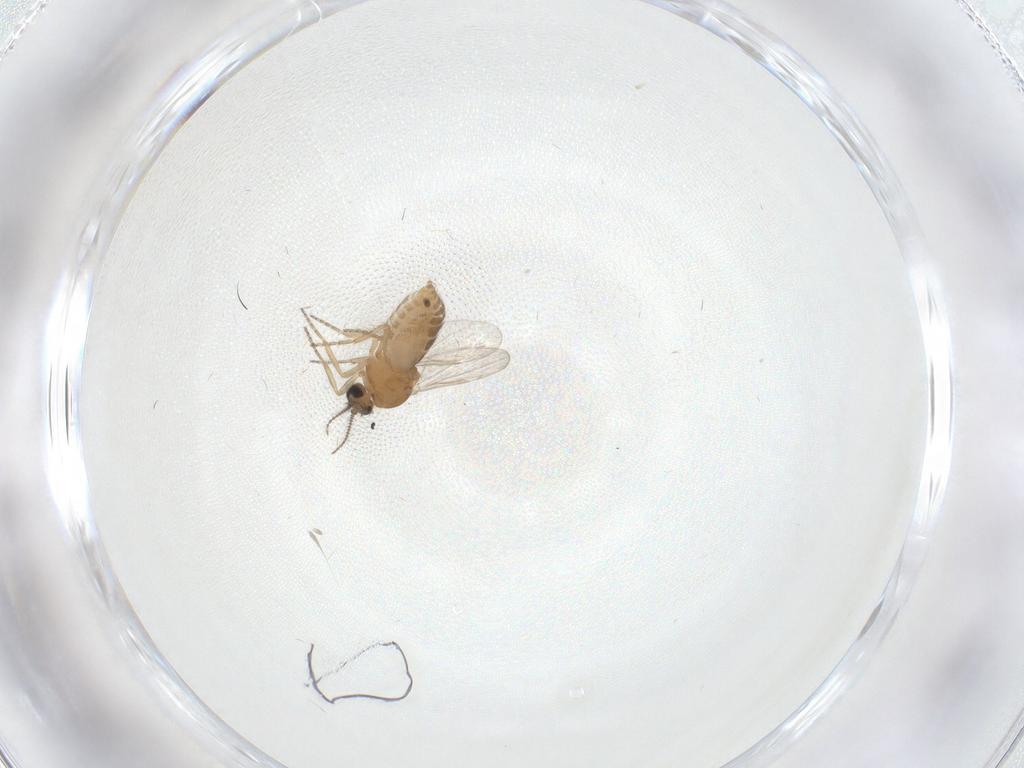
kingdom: Animalia
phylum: Arthropoda
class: Insecta
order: Diptera
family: Ceratopogonidae
